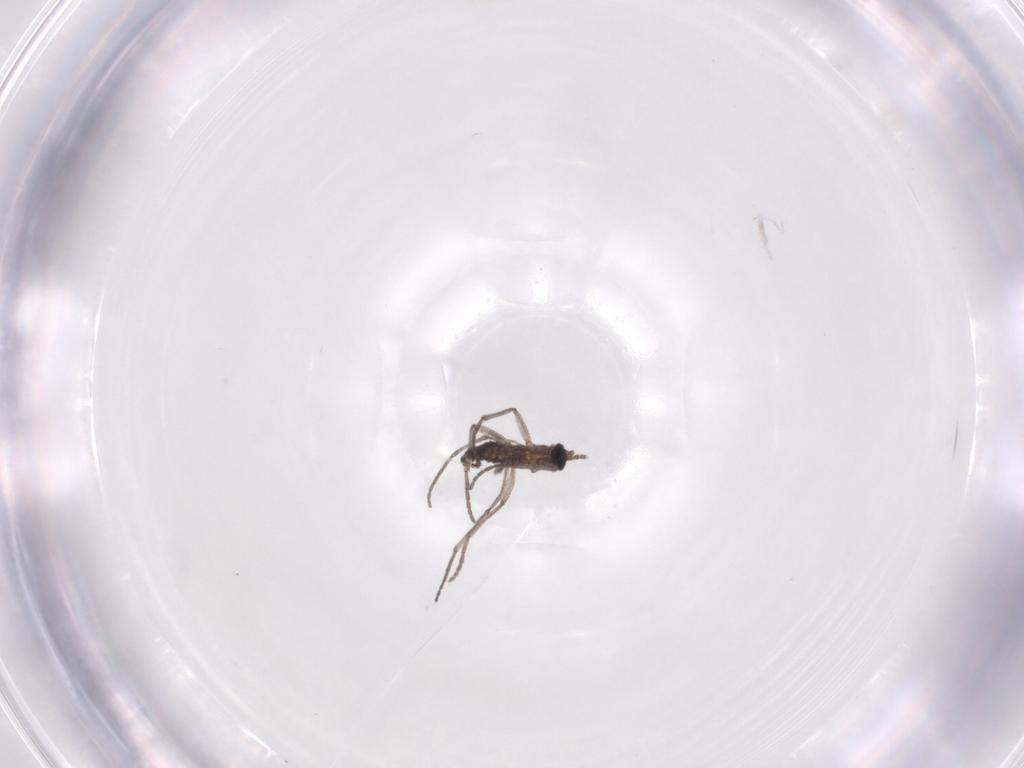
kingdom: Animalia
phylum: Arthropoda
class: Insecta
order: Diptera
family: Sciaridae
